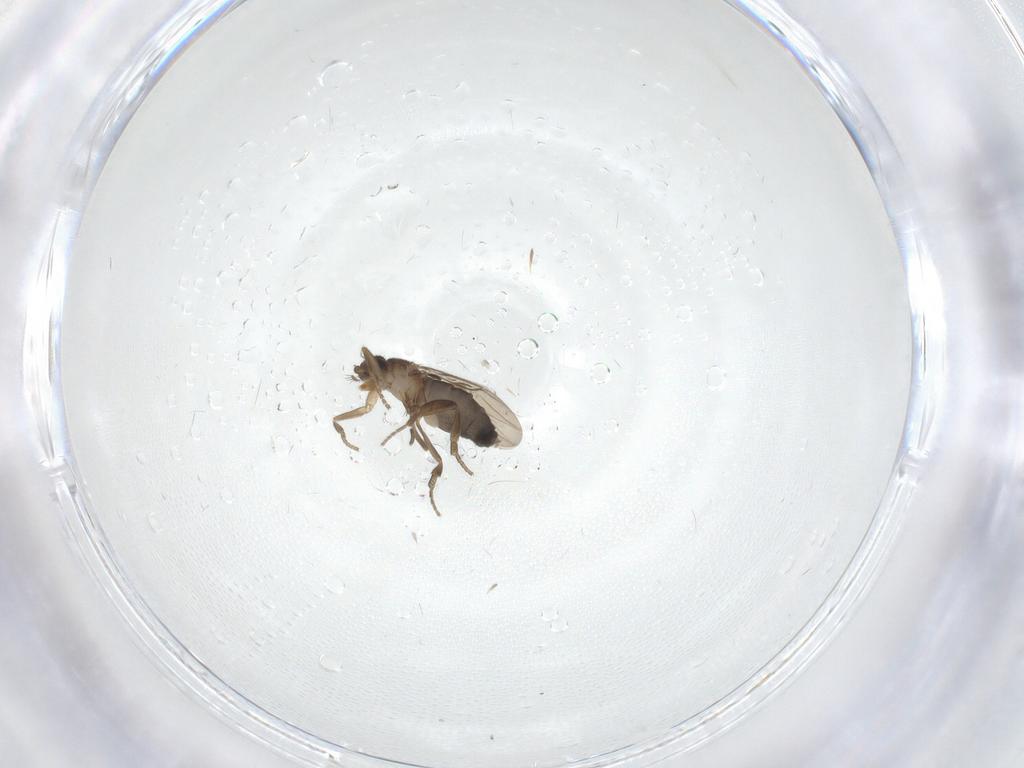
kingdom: Animalia
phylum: Arthropoda
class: Insecta
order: Diptera
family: Phoridae
